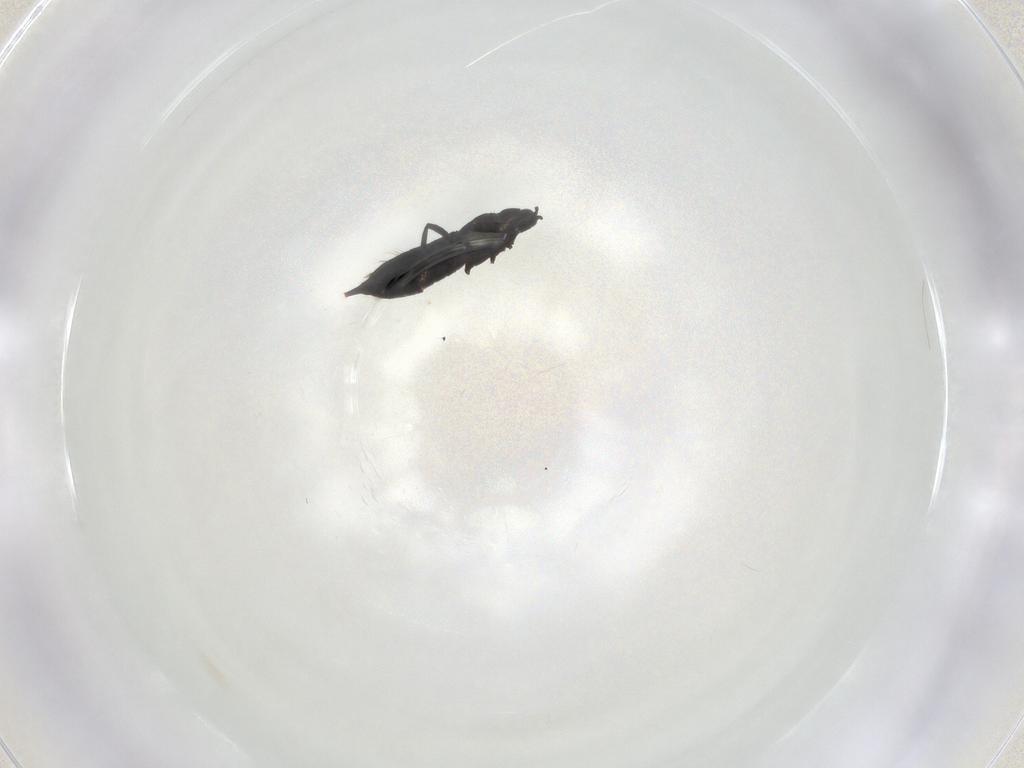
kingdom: Animalia
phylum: Arthropoda
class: Insecta
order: Thysanoptera
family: Phlaeothripidae
